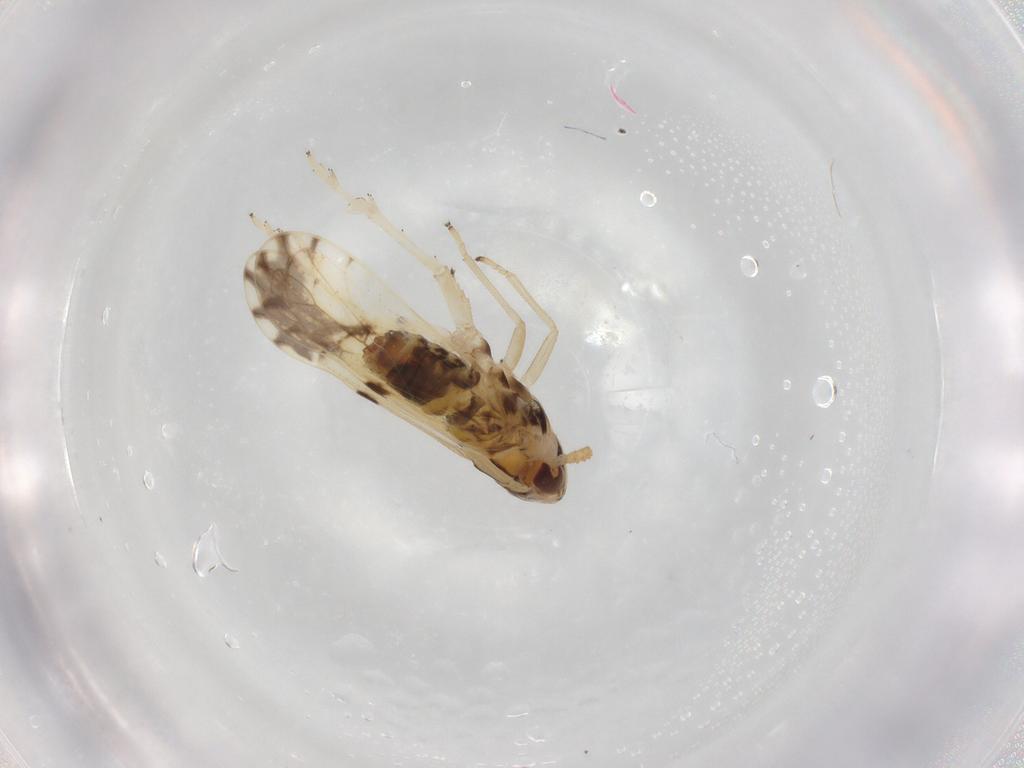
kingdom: Animalia
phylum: Arthropoda
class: Insecta
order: Hemiptera
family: Delphacidae
